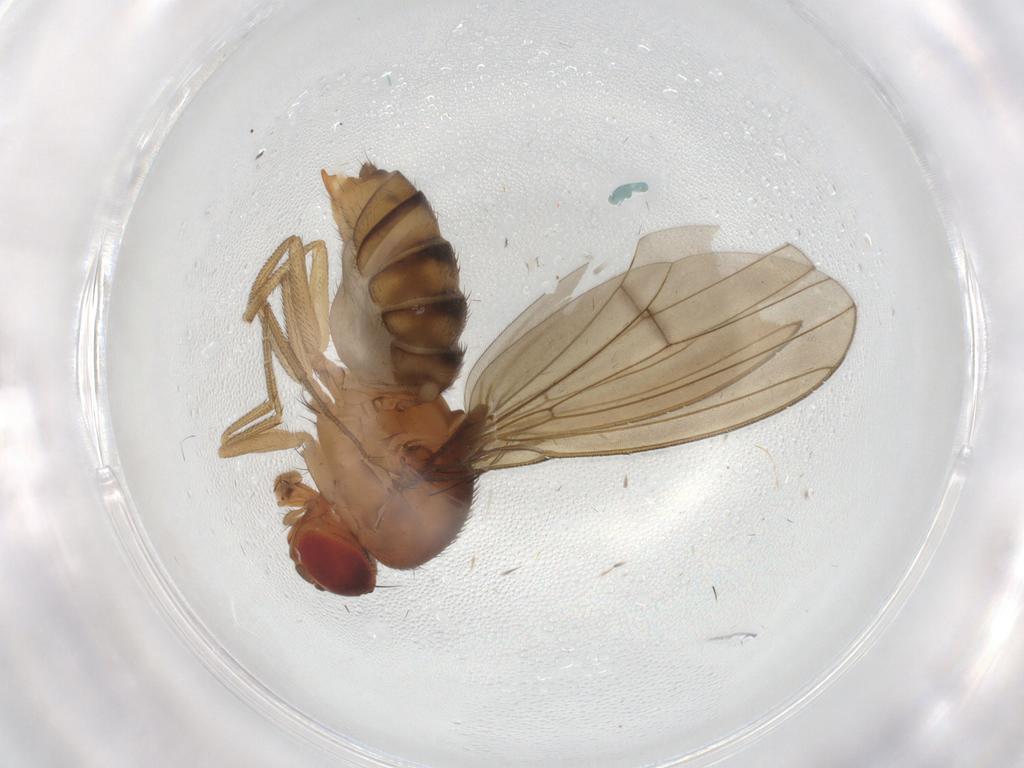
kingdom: Animalia
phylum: Arthropoda
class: Insecta
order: Diptera
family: Drosophilidae
